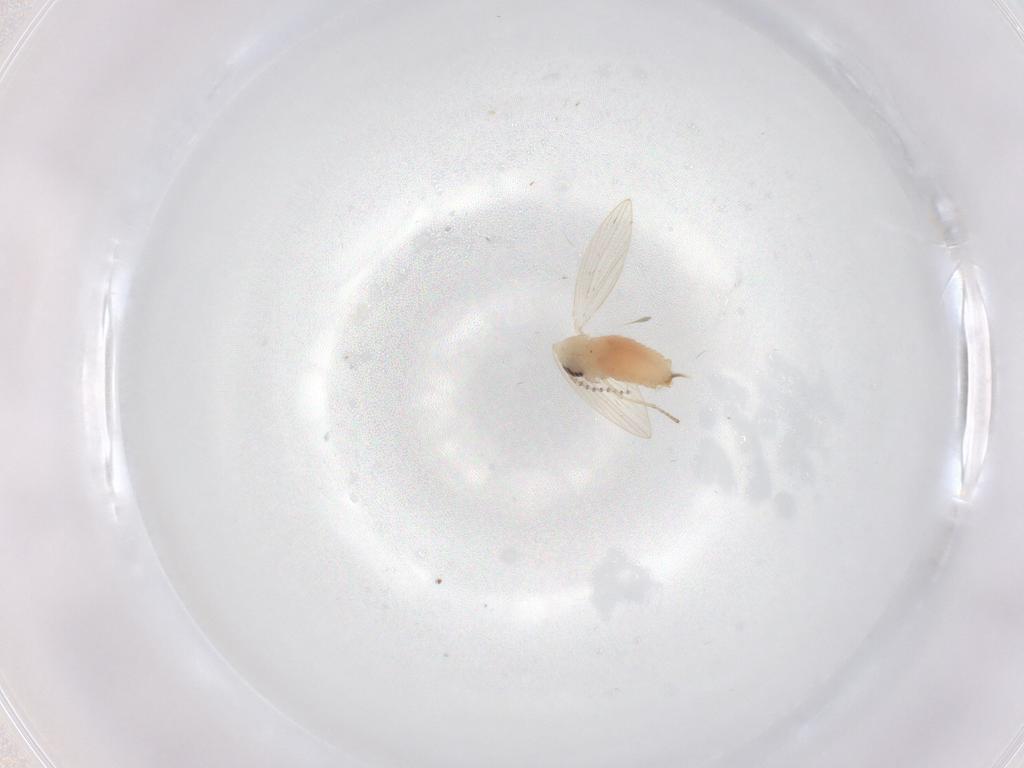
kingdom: Animalia
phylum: Arthropoda
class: Insecta
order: Diptera
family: Psychodidae
